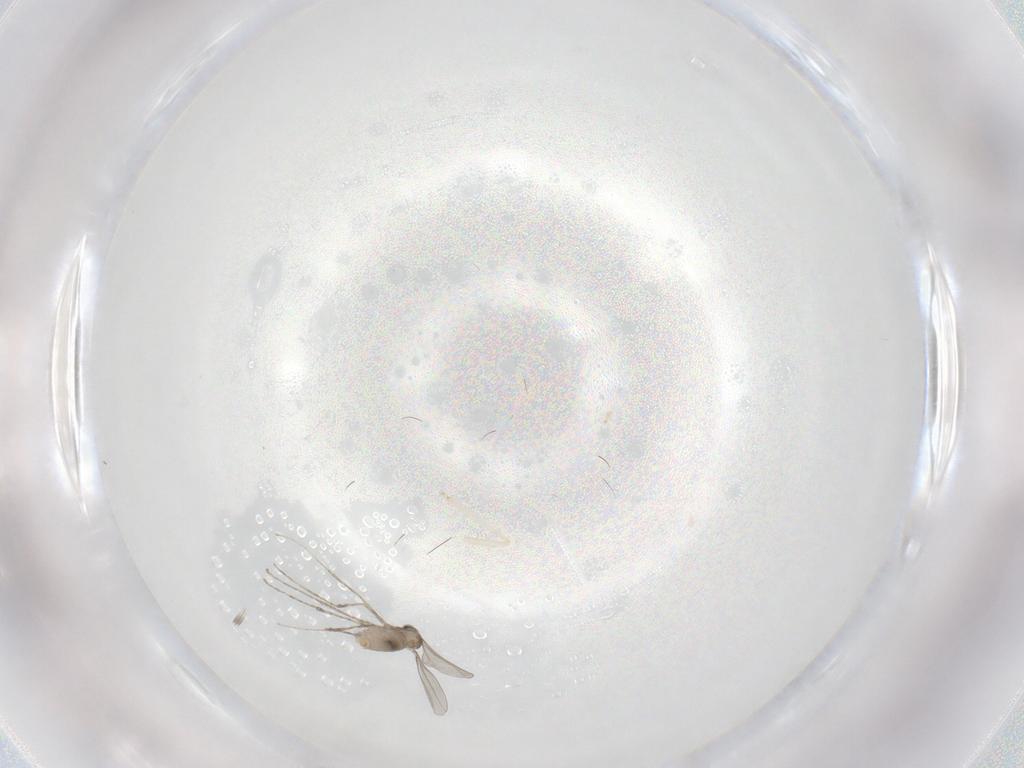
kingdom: Animalia
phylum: Arthropoda
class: Insecta
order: Diptera
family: Cecidomyiidae
